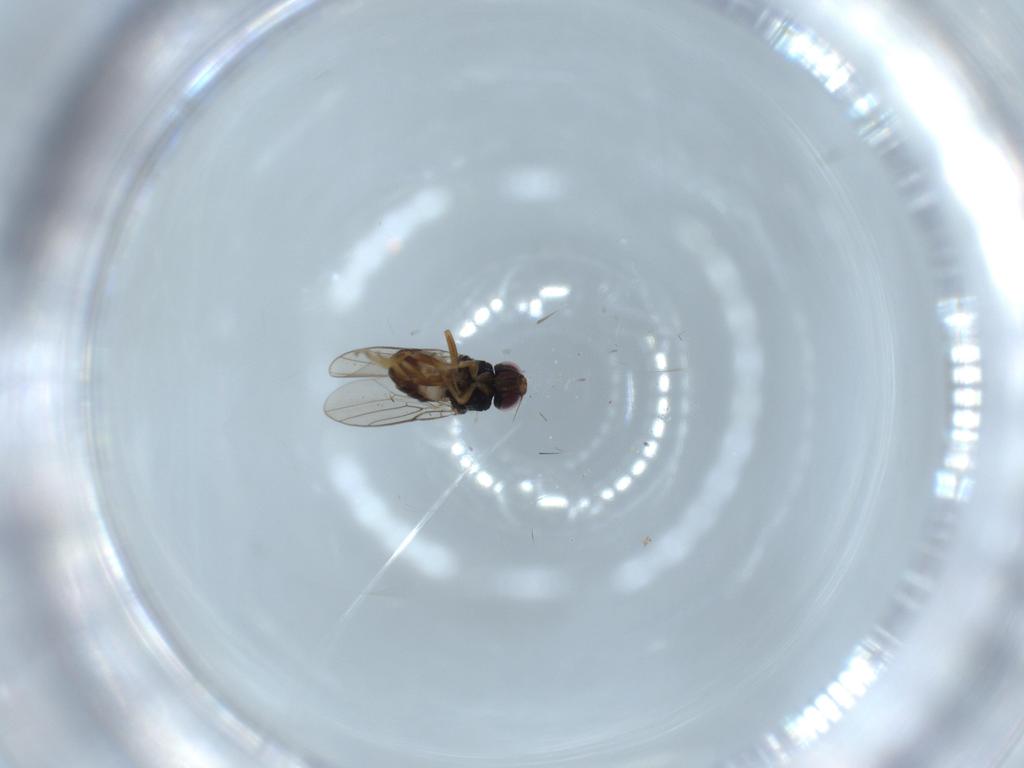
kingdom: Animalia
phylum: Arthropoda
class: Insecta
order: Diptera
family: Chloropidae
